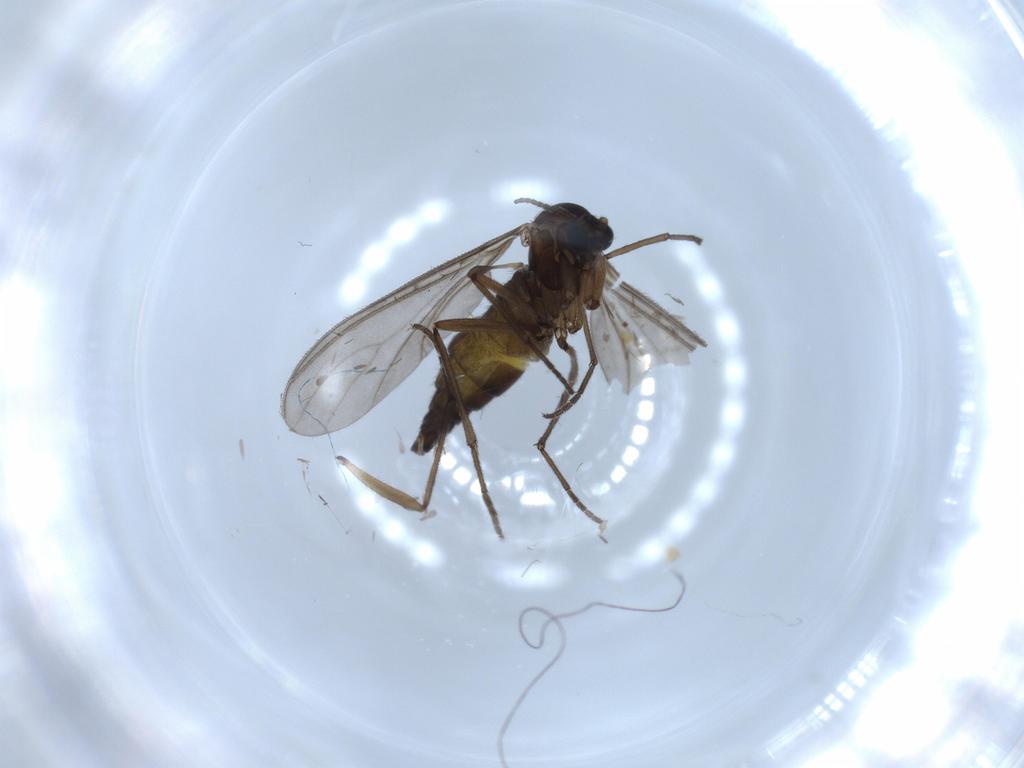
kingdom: Animalia
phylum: Arthropoda
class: Insecta
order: Diptera
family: Sciaridae
